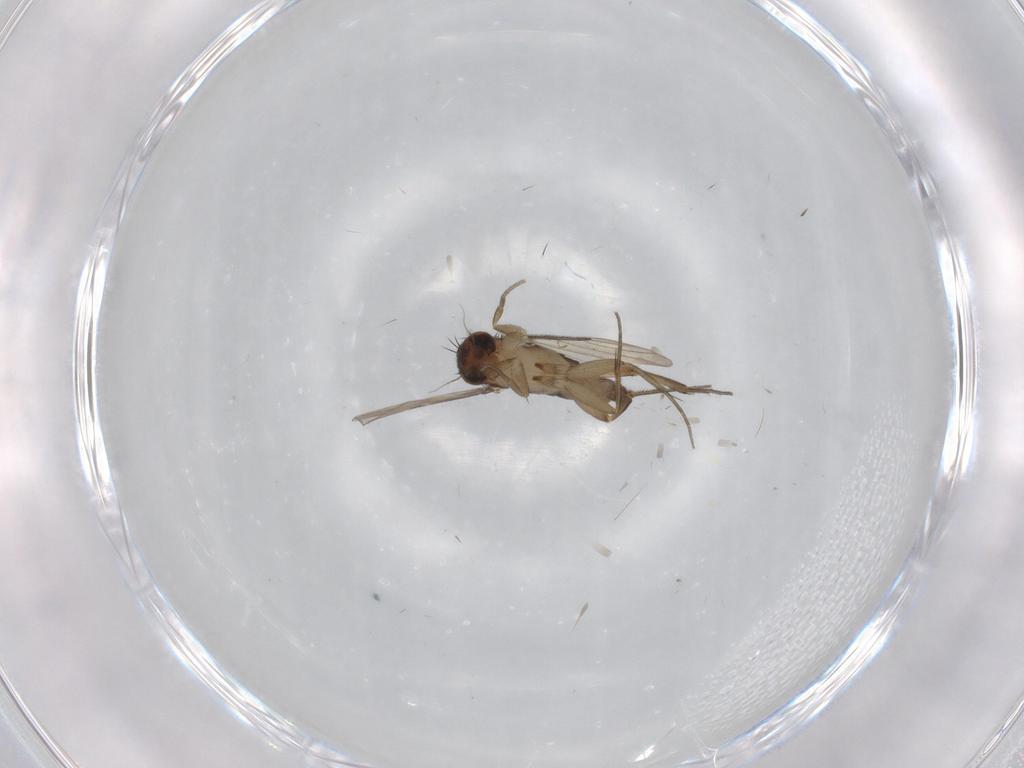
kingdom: Animalia
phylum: Arthropoda
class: Insecta
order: Diptera
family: Phoridae
